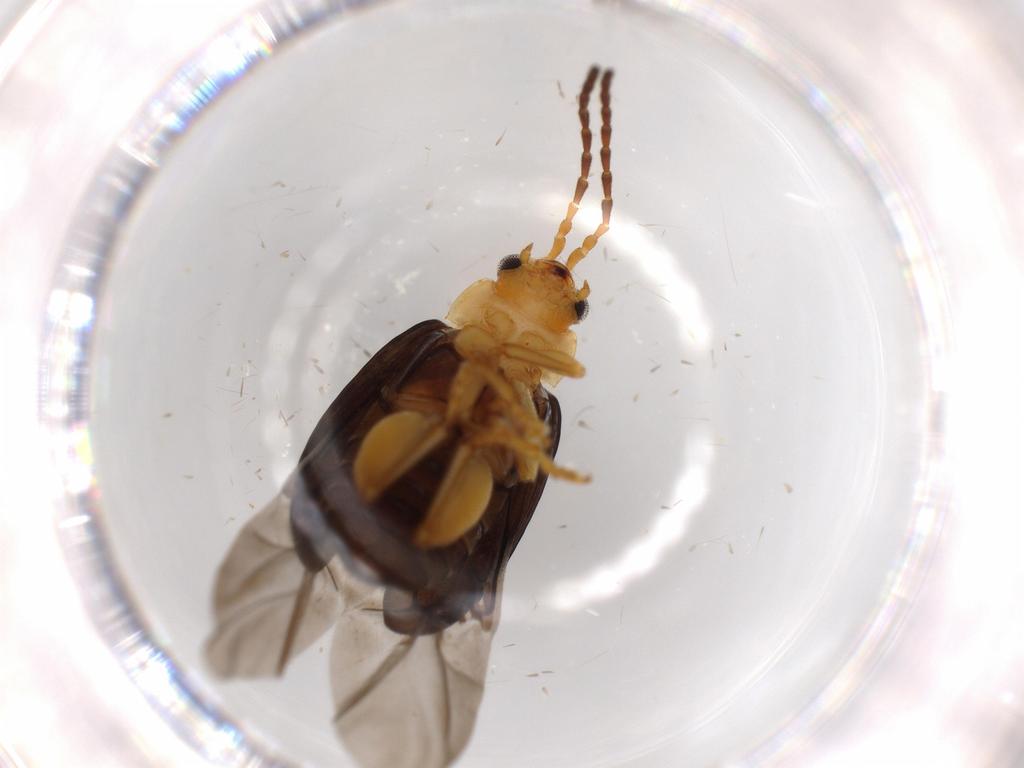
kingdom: Animalia
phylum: Arthropoda
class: Insecta
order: Coleoptera
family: Chrysomelidae
